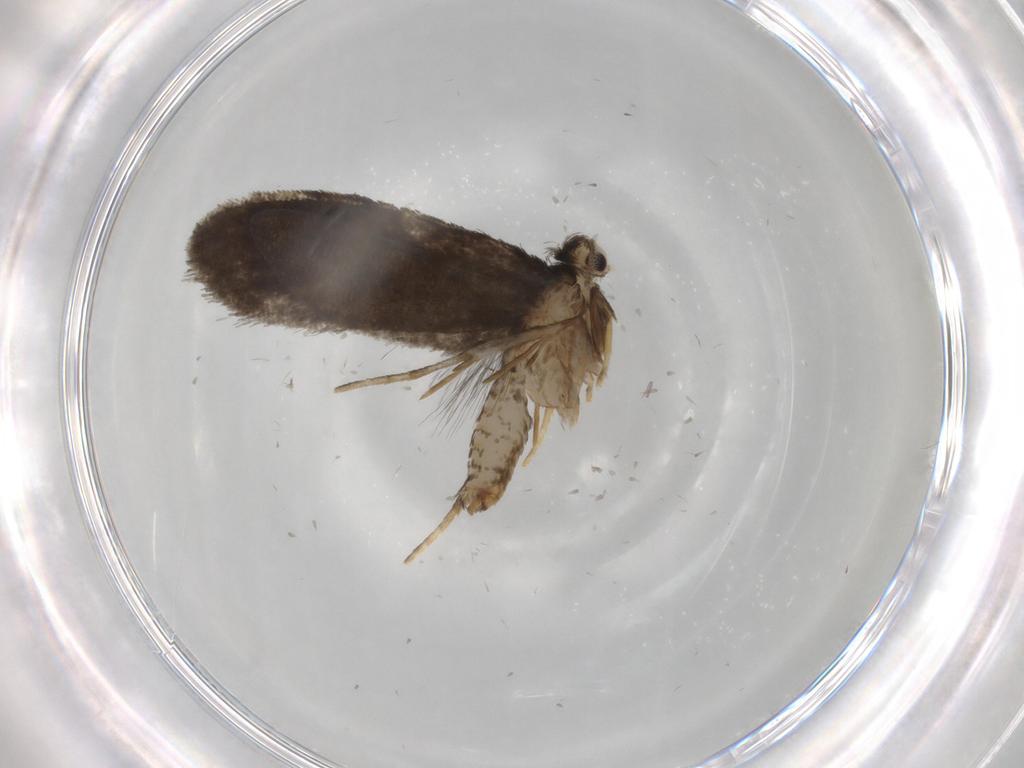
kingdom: Animalia
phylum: Arthropoda
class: Insecta
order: Lepidoptera
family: Psychidae
